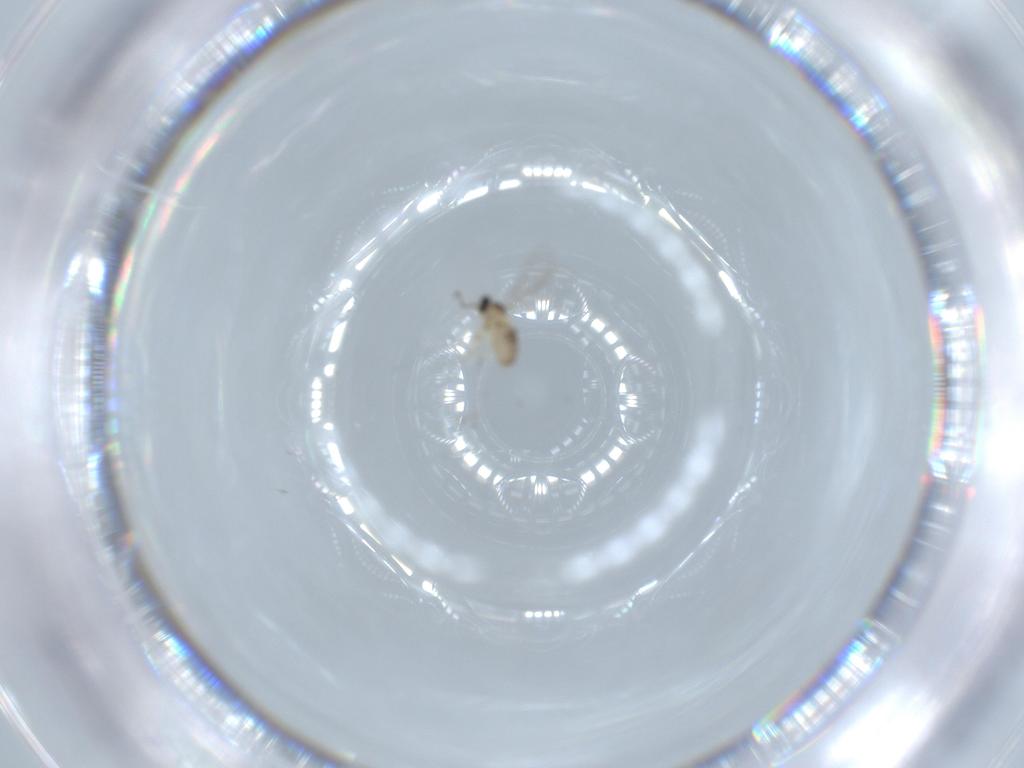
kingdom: Animalia
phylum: Arthropoda
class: Insecta
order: Diptera
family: Cecidomyiidae
